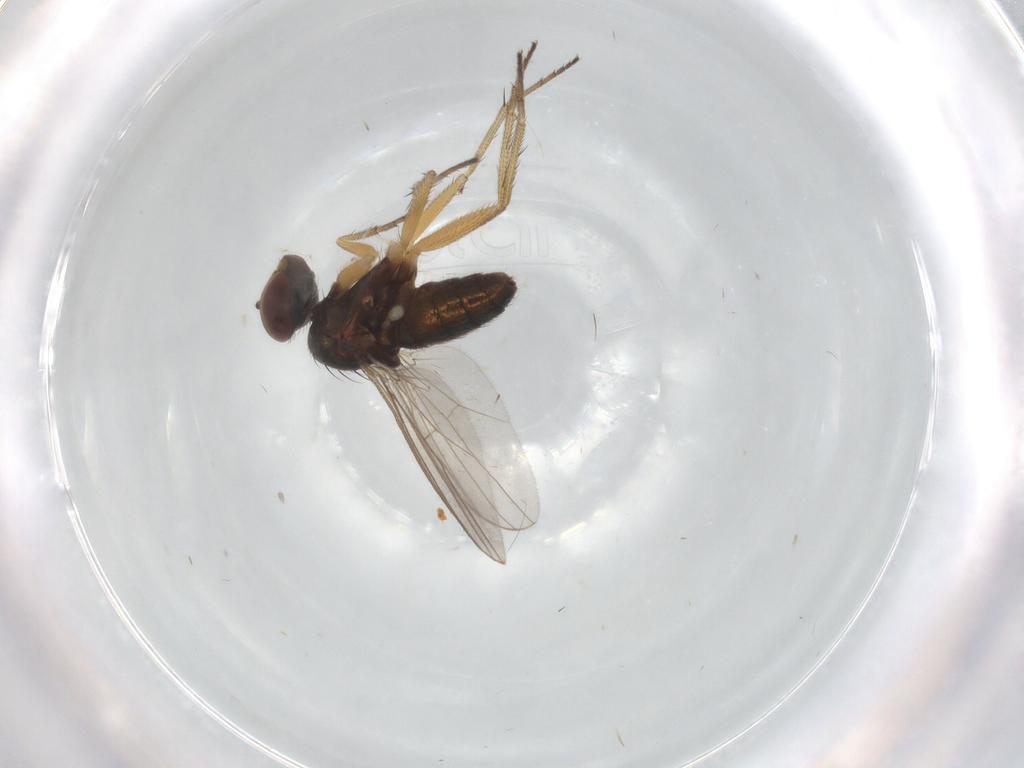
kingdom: Animalia
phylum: Arthropoda
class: Insecta
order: Diptera
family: Dolichopodidae
